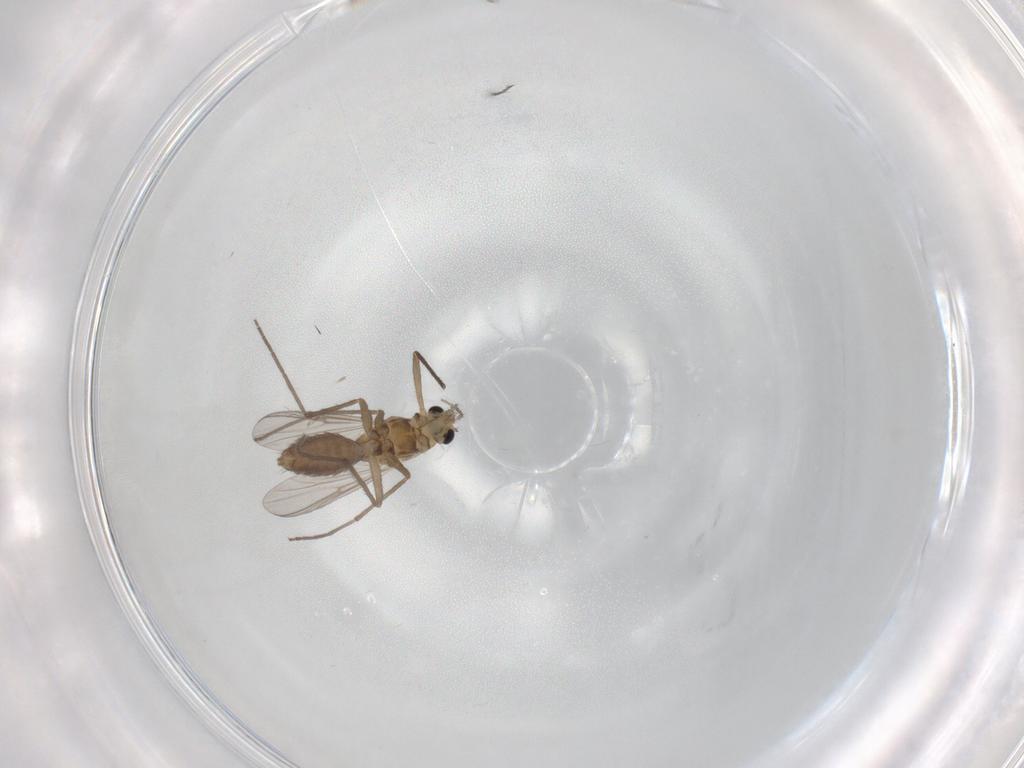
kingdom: Animalia
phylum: Arthropoda
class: Insecta
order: Diptera
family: Chironomidae
